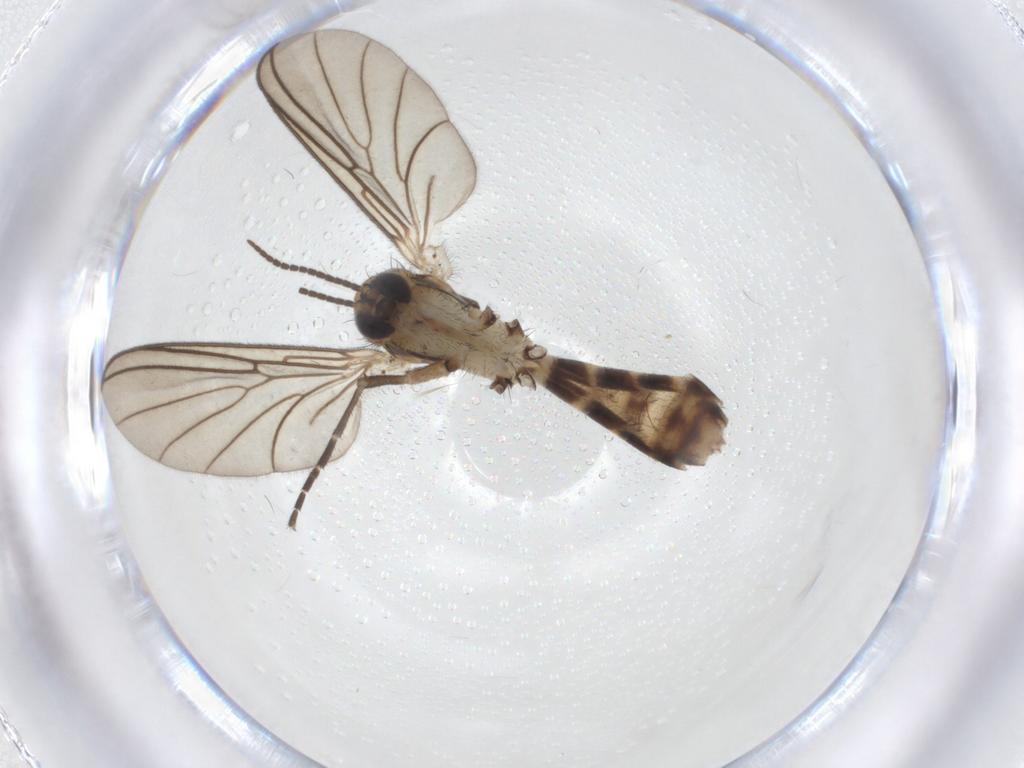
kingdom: Animalia
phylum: Arthropoda
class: Insecta
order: Diptera
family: Mycetophilidae
